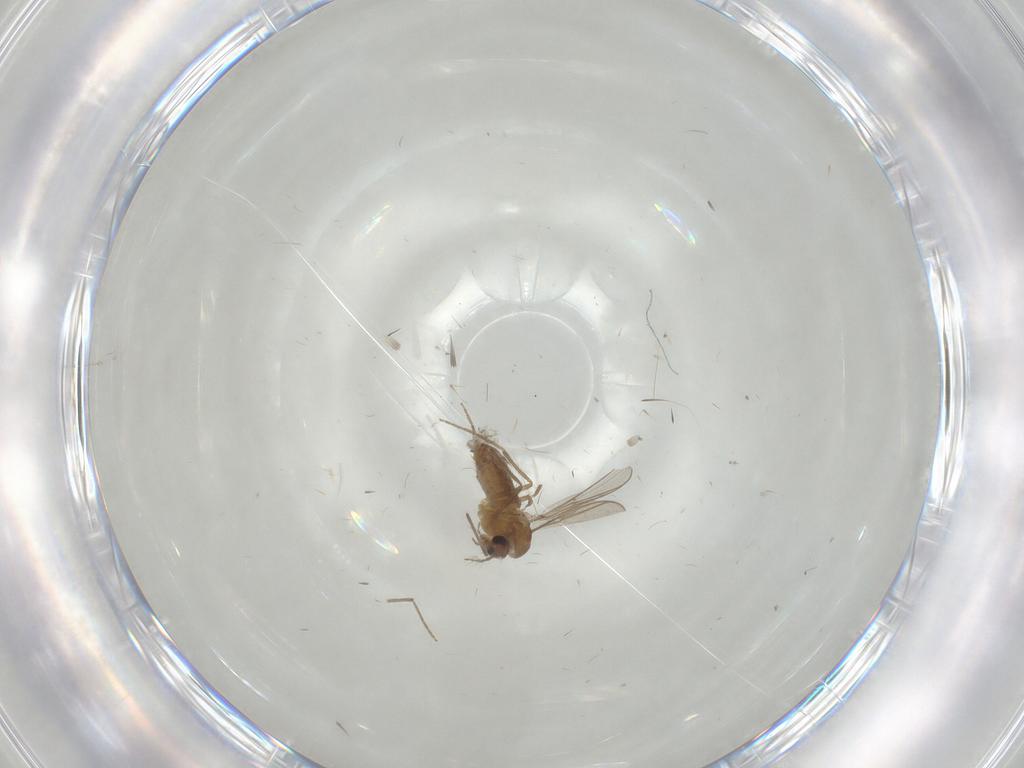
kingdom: Animalia
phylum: Arthropoda
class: Insecta
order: Diptera
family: Chironomidae
